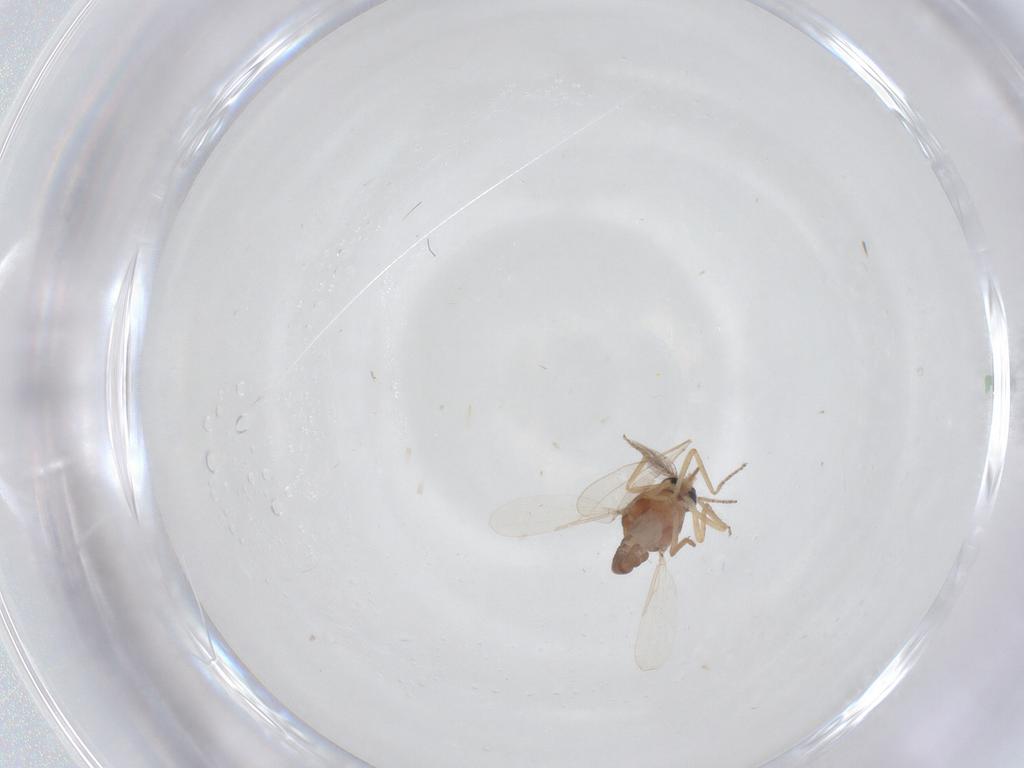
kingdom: Animalia
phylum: Arthropoda
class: Insecta
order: Diptera
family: Ceratopogonidae
